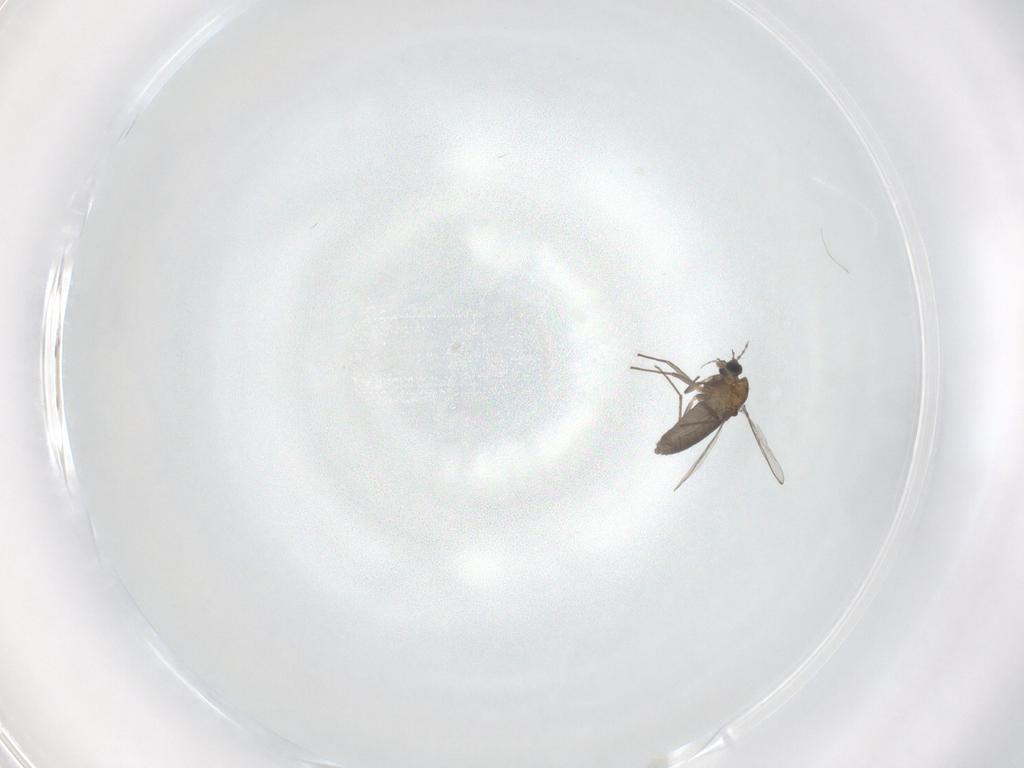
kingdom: Animalia
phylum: Arthropoda
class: Insecta
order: Diptera
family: Chironomidae
